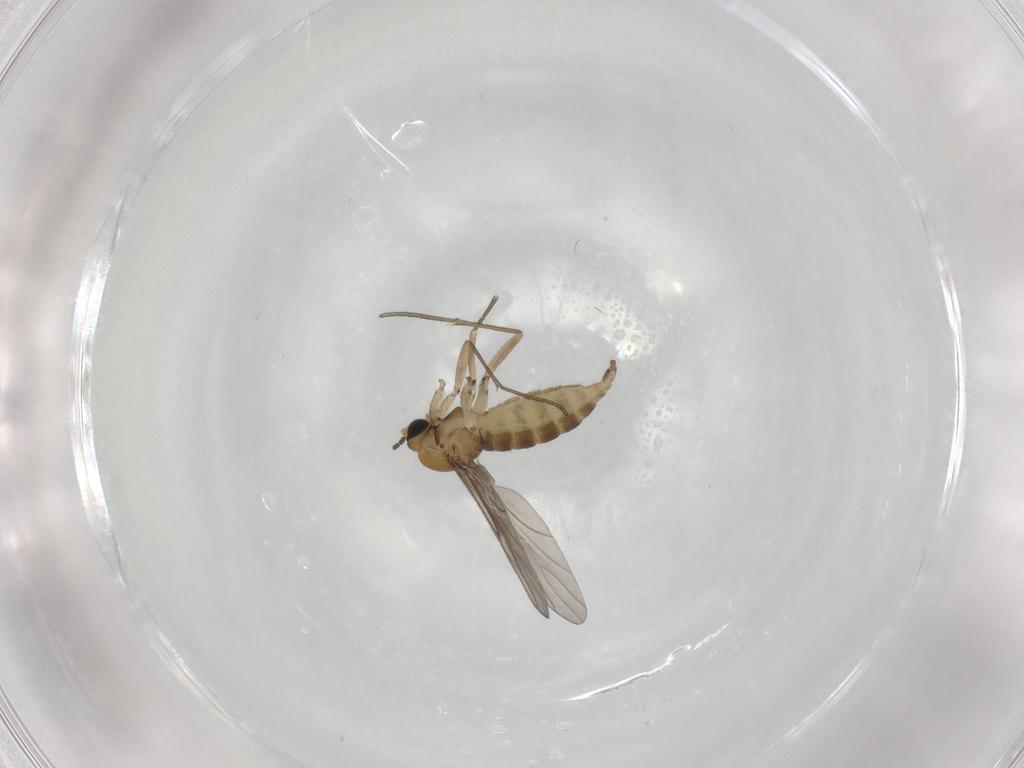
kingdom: Animalia
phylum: Arthropoda
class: Insecta
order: Diptera
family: Sciaridae
